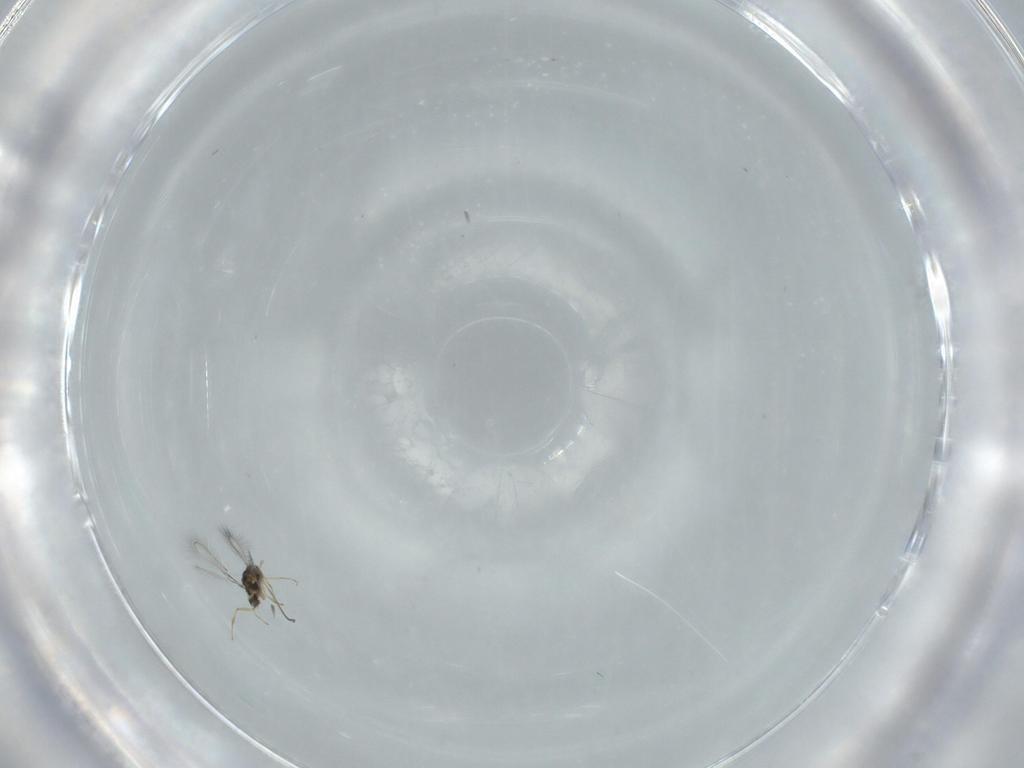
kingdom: Animalia
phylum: Arthropoda
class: Insecta
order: Hymenoptera
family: Mymaridae
